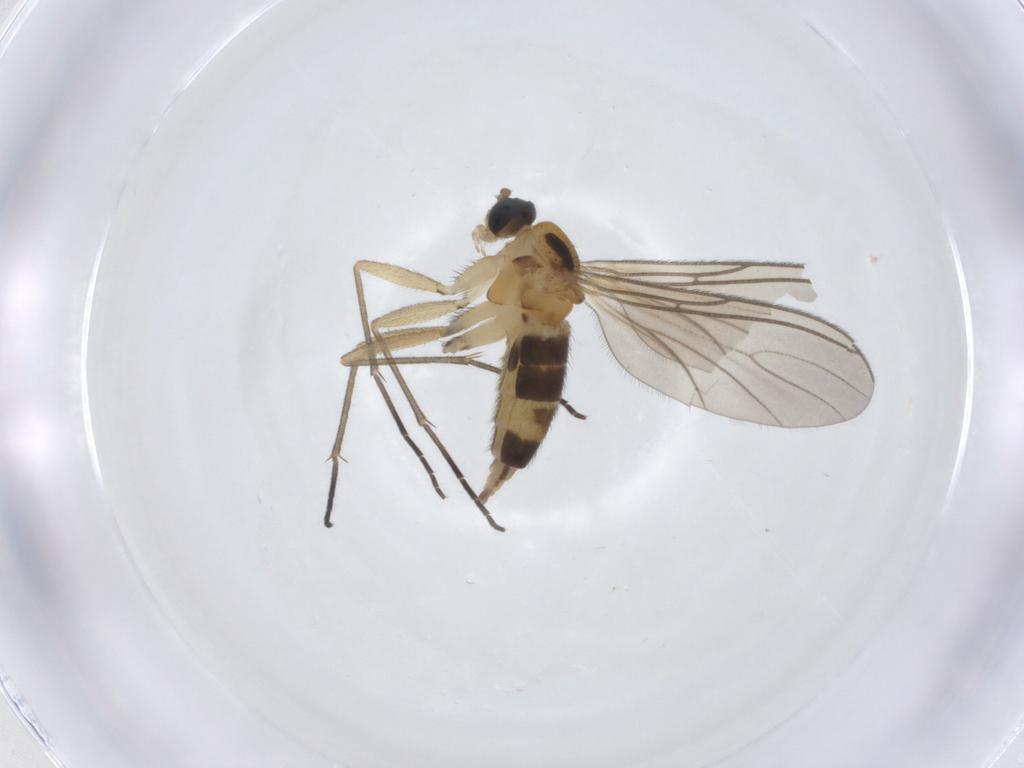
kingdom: Animalia
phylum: Arthropoda
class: Insecta
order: Diptera
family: Sciaridae
